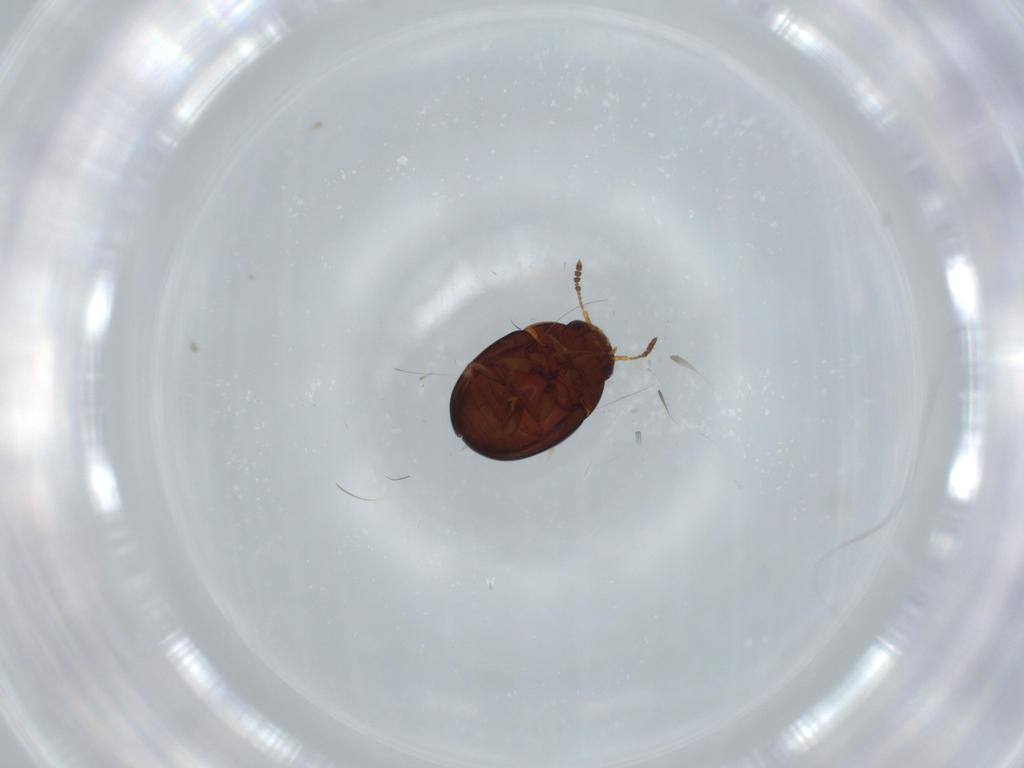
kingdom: Animalia
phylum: Arthropoda
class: Insecta
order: Coleoptera
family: Leiodidae
